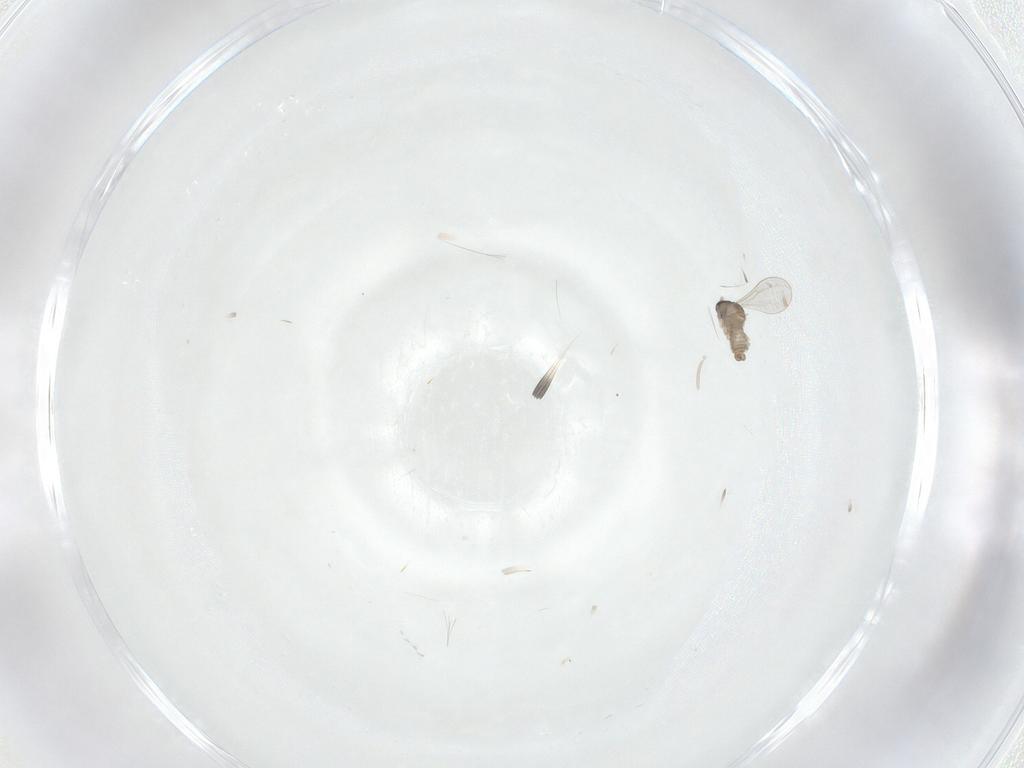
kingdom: Animalia
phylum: Arthropoda
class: Insecta
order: Diptera
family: Cecidomyiidae
